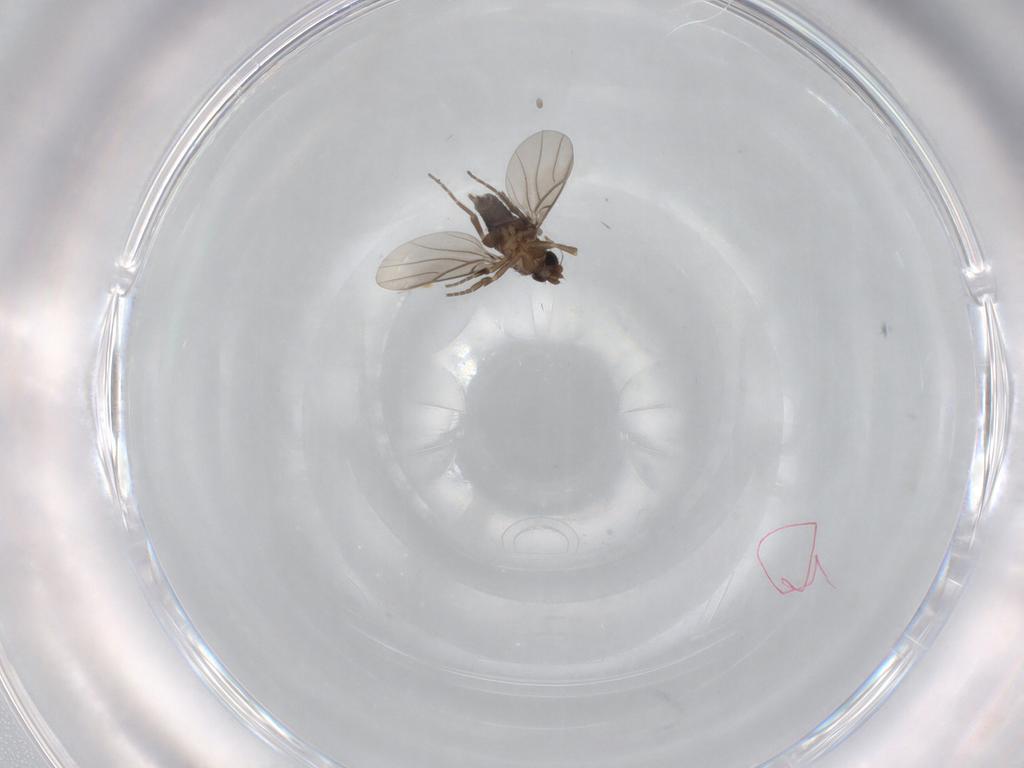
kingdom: Animalia
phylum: Arthropoda
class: Insecta
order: Diptera
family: Phoridae
